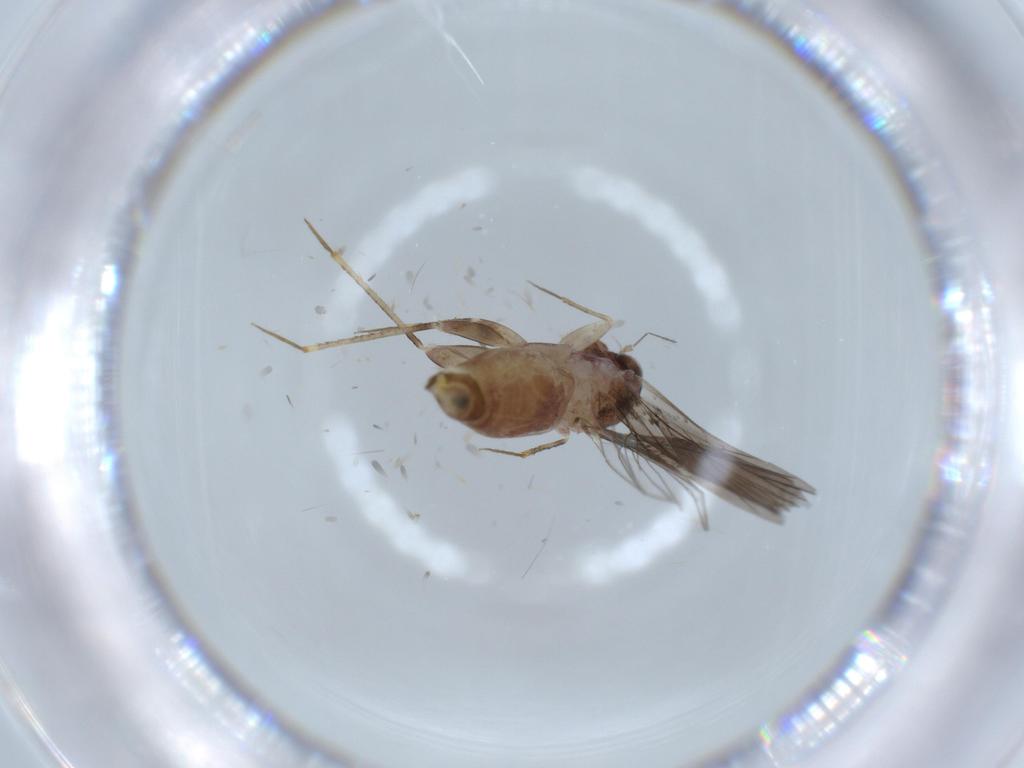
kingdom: Animalia
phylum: Arthropoda
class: Insecta
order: Psocodea
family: Lepidopsocidae
